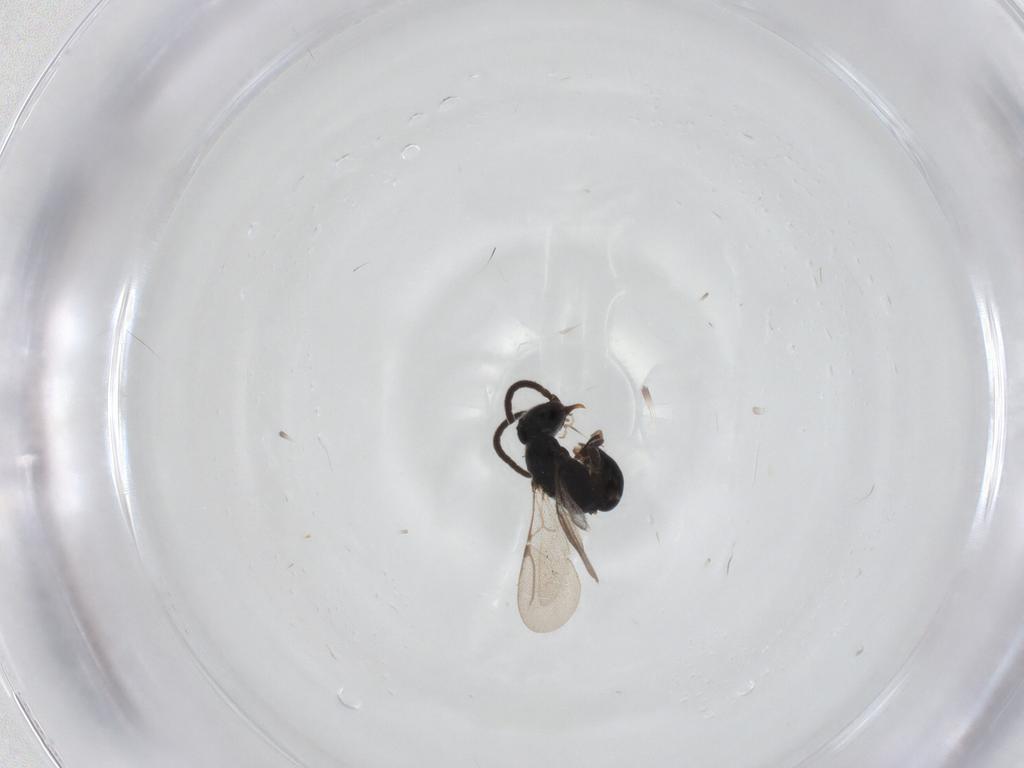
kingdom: Animalia
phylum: Arthropoda
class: Insecta
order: Hymenoptera
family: Bethylidae
